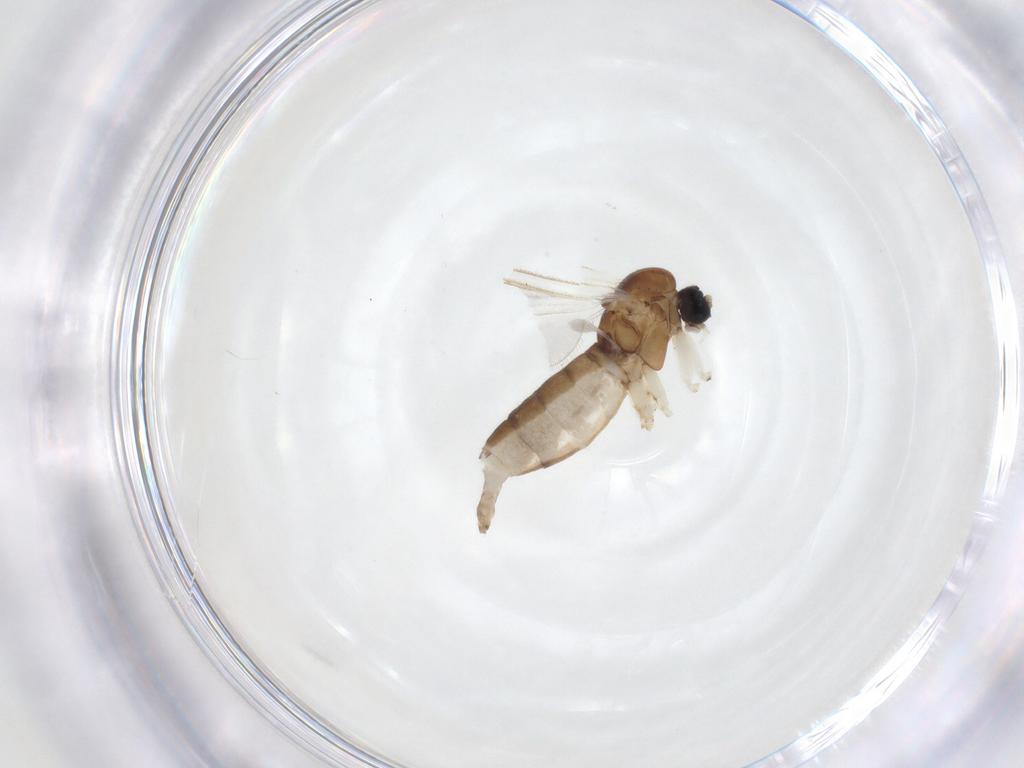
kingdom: Animalia
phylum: Arthropoda
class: Insecta
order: Diptera
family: Sciaridae
